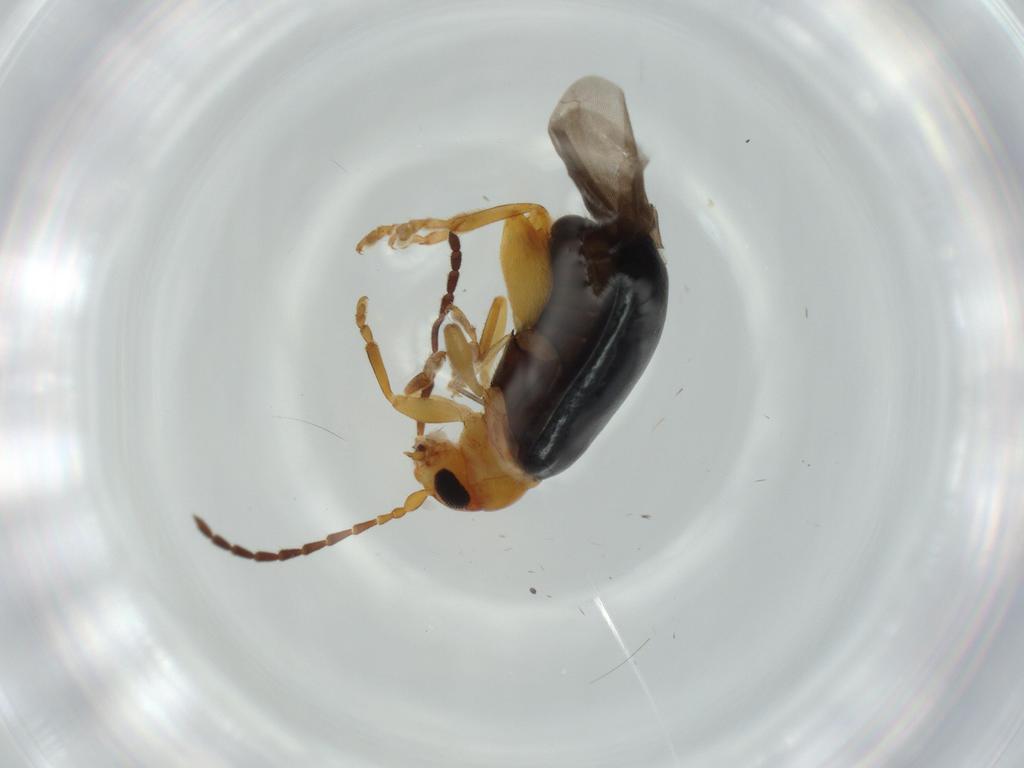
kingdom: Animalia
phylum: Arthropoda
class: Insecta
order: Coleoptera
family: Chrysomelidae
